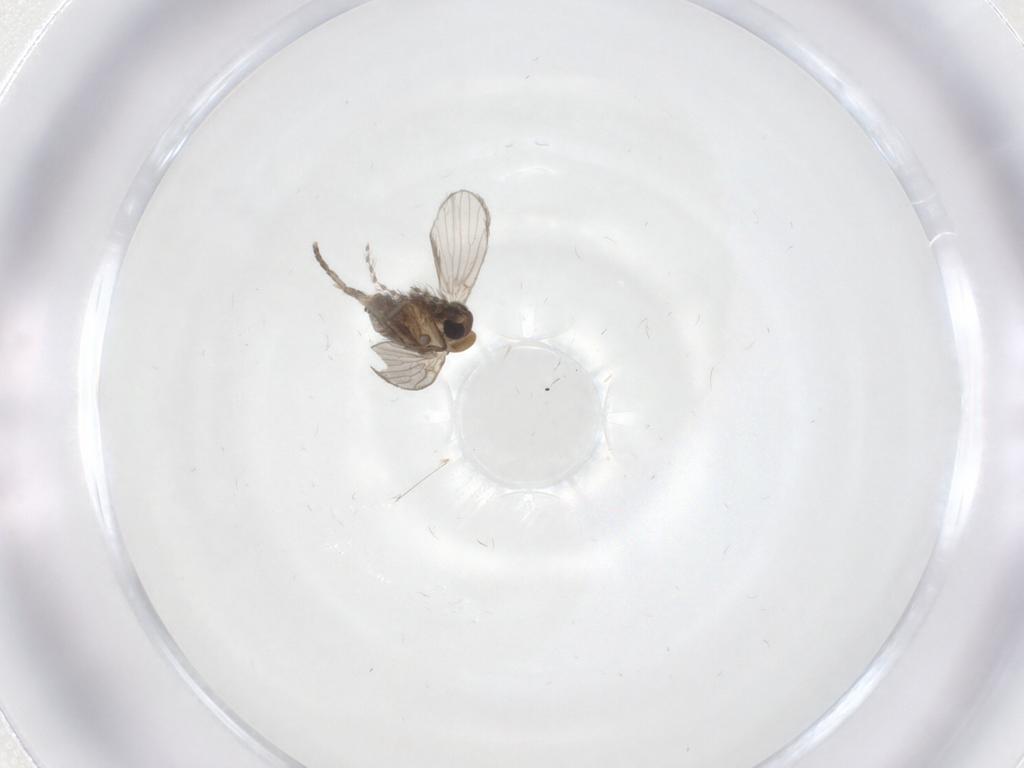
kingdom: Animalia
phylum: Arthropoda
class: Insecta
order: Diptera
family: Psychodidae
